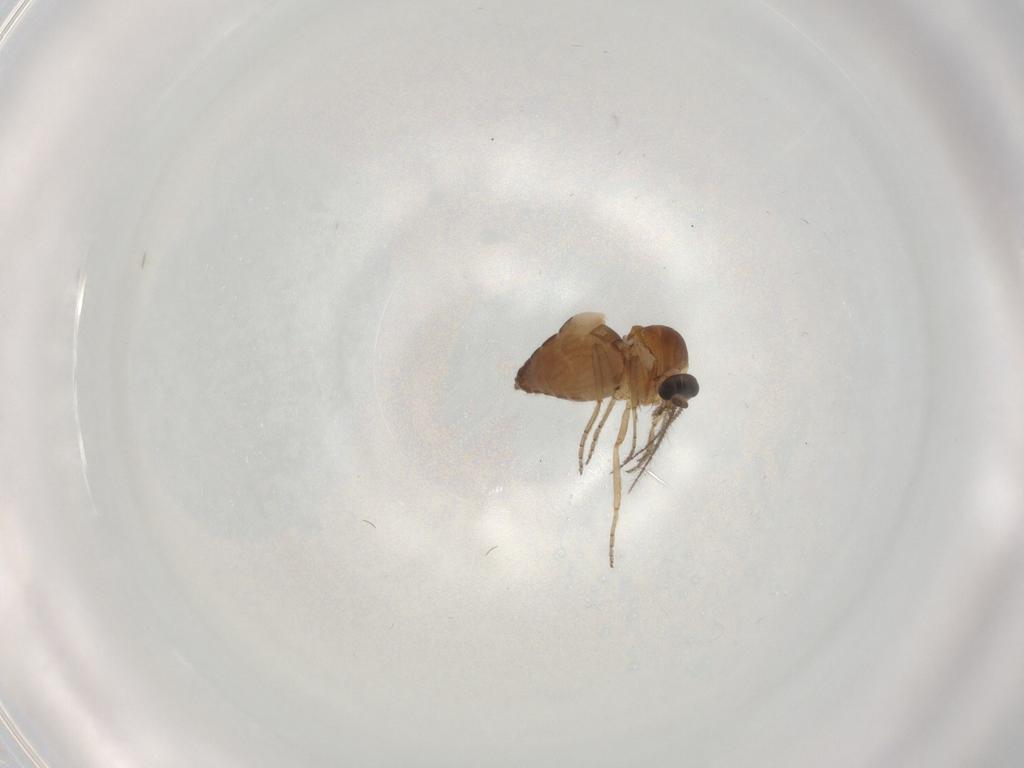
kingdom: Animalia
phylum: Arthropoda
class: Insecta
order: Diptera
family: Ceratopogonidae
